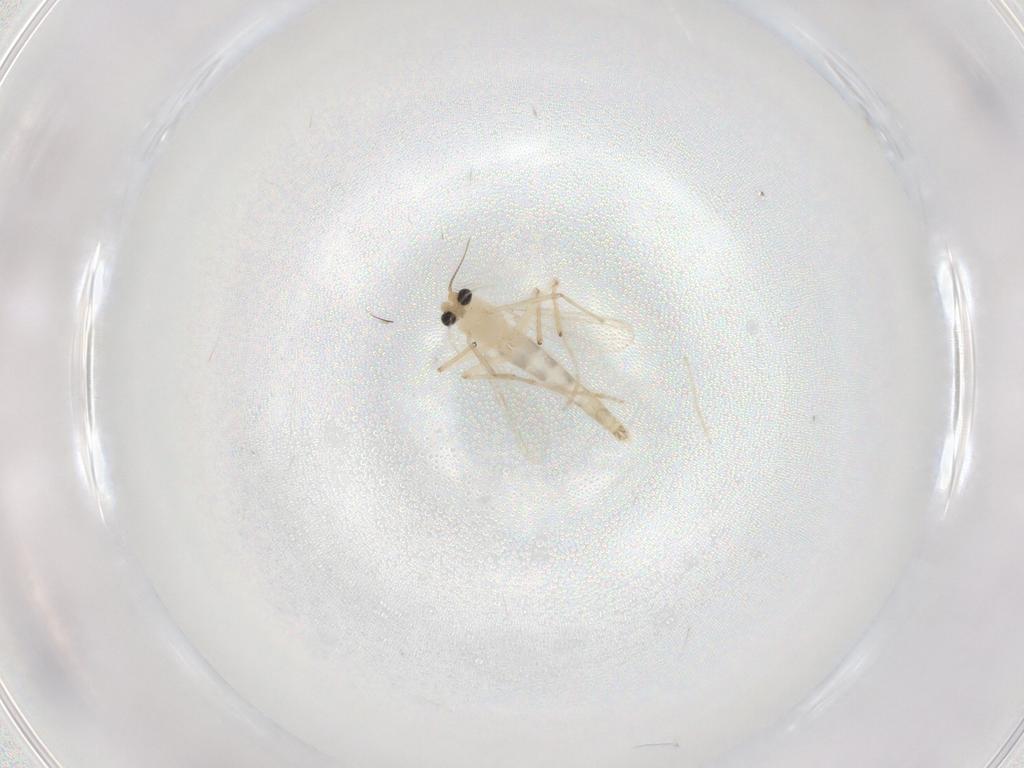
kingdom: Animalia
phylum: Arthropoda
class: Insecta
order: Diptera
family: Chironomidae
